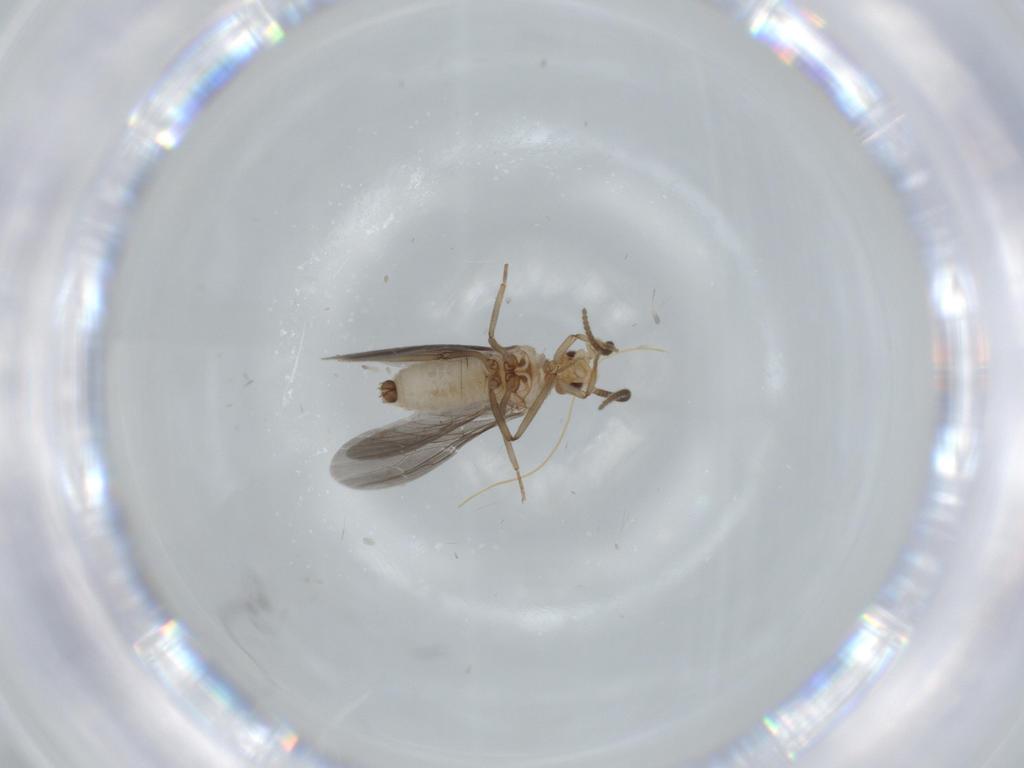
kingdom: Animalia
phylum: Arthropoda
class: Insecta
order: Neuroptera
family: Coniopterygidae
